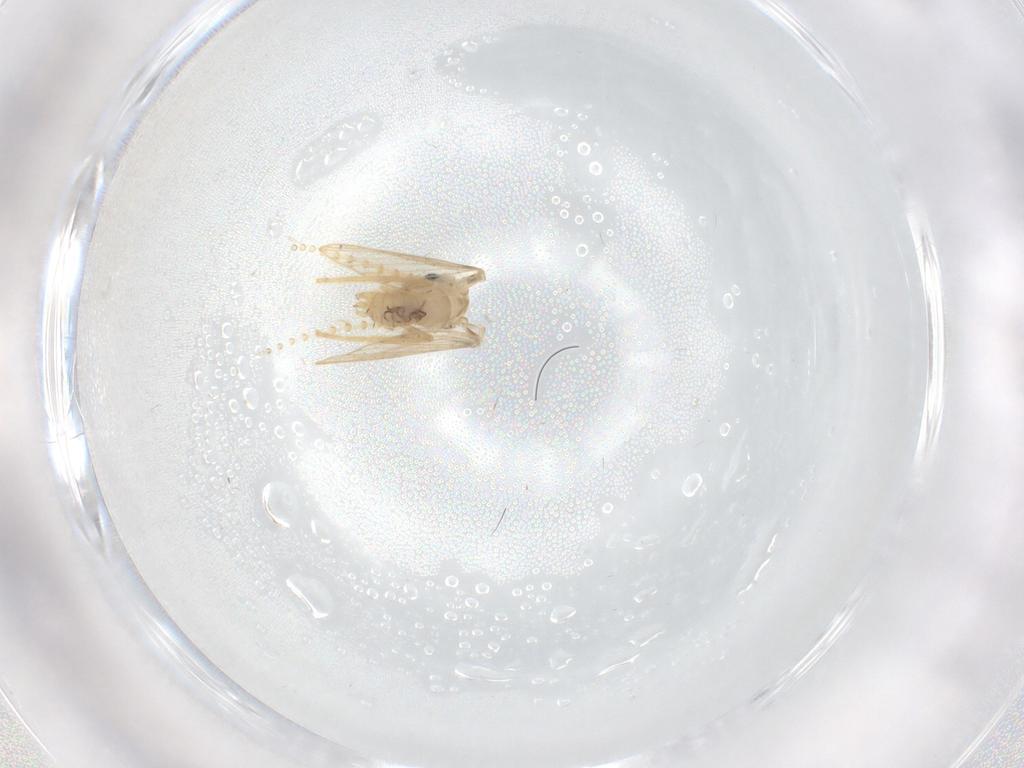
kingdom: Animalia
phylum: Arthropoda
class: Insecta
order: Diptera
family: Psychodidae
